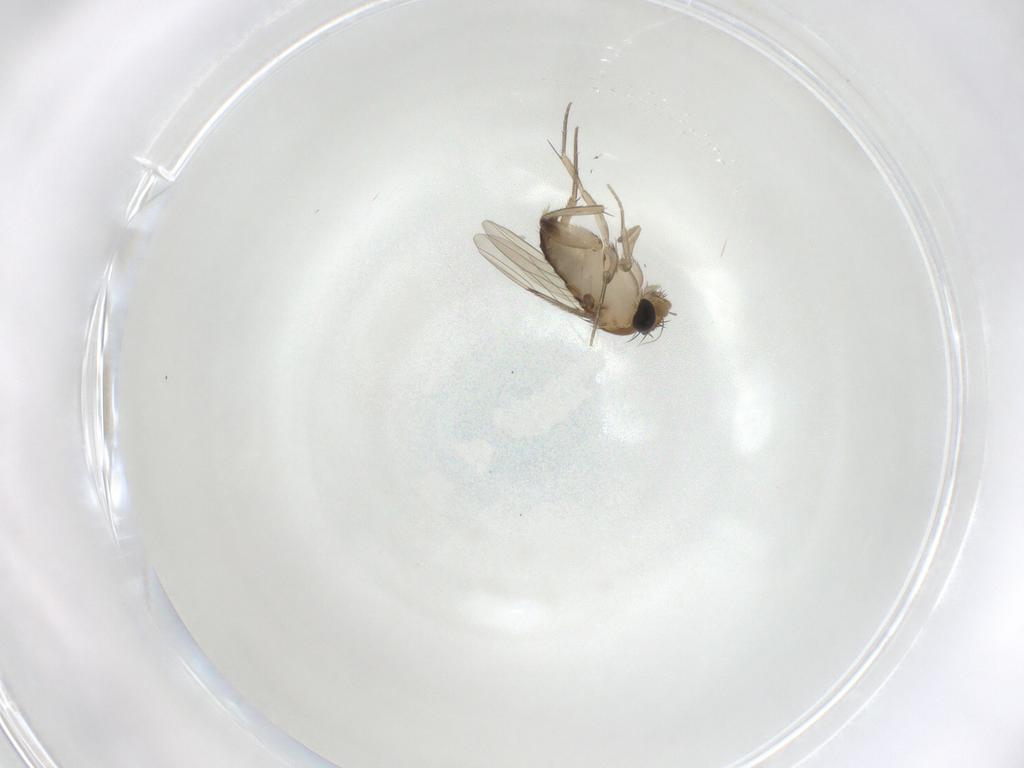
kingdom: Animalia
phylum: Arthropoda
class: Insecta
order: Diptera
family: Phoridae
